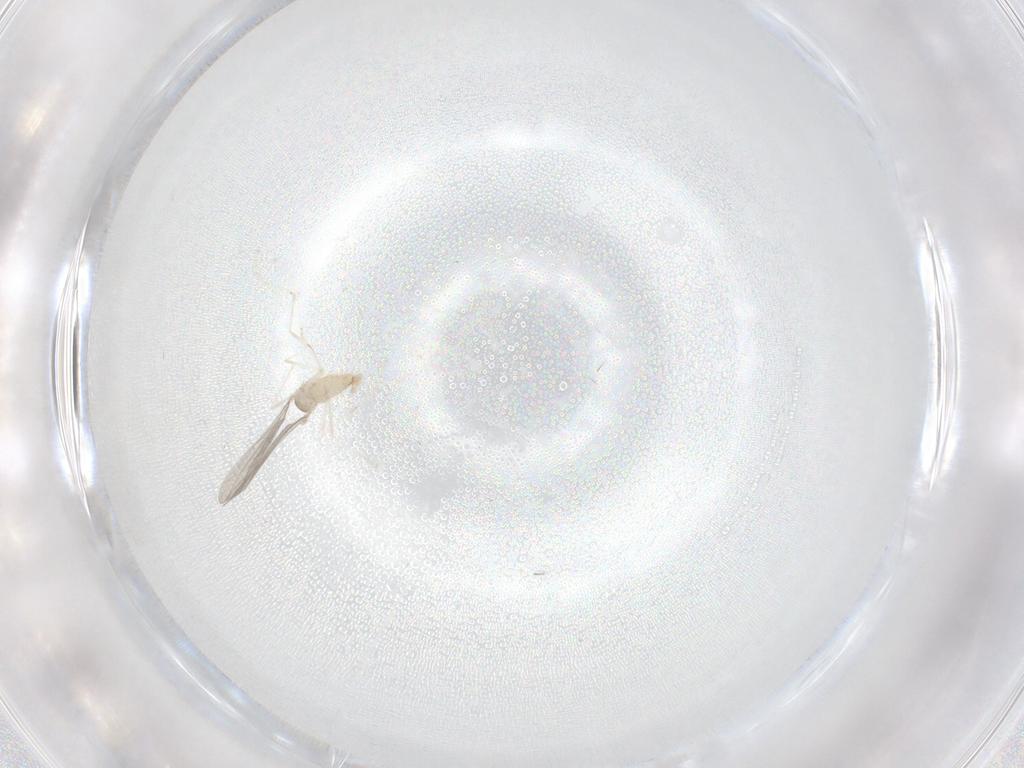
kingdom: Animalia
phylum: Arthropoda
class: Insecta
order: Diptera
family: Cecidomyiidae
